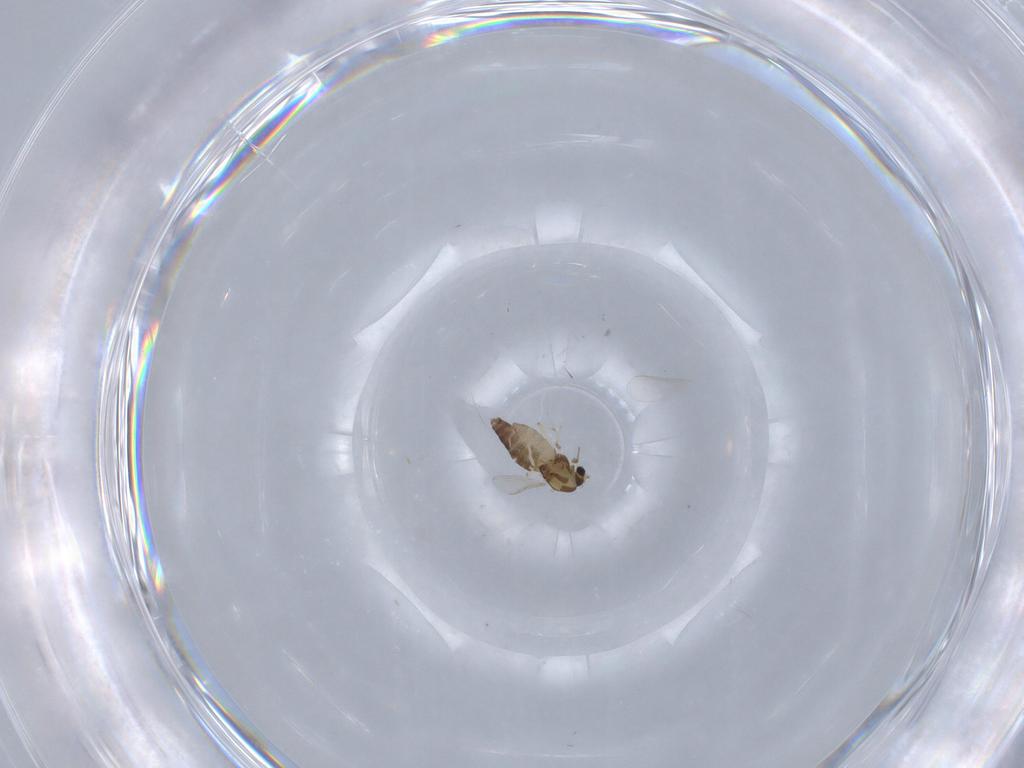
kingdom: Animalia
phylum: Arthropoda
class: Insecta
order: Diptera
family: Chironomidae
